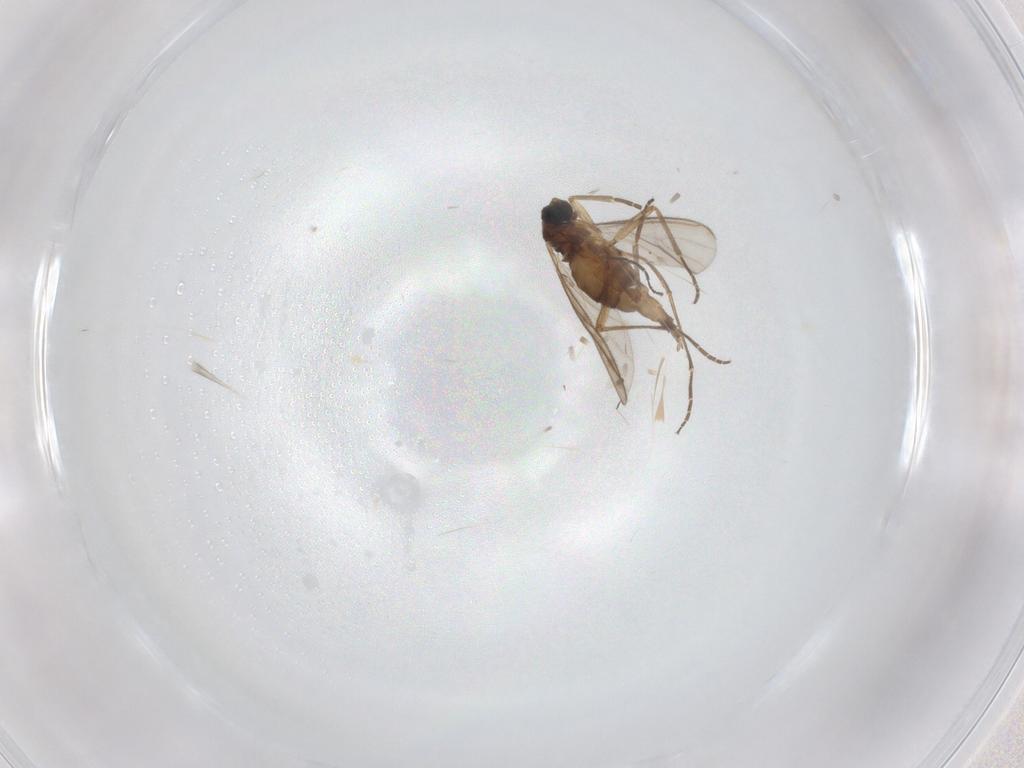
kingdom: Animalia
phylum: Arthropoda
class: Insecta
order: Diptera
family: Sciaridae
